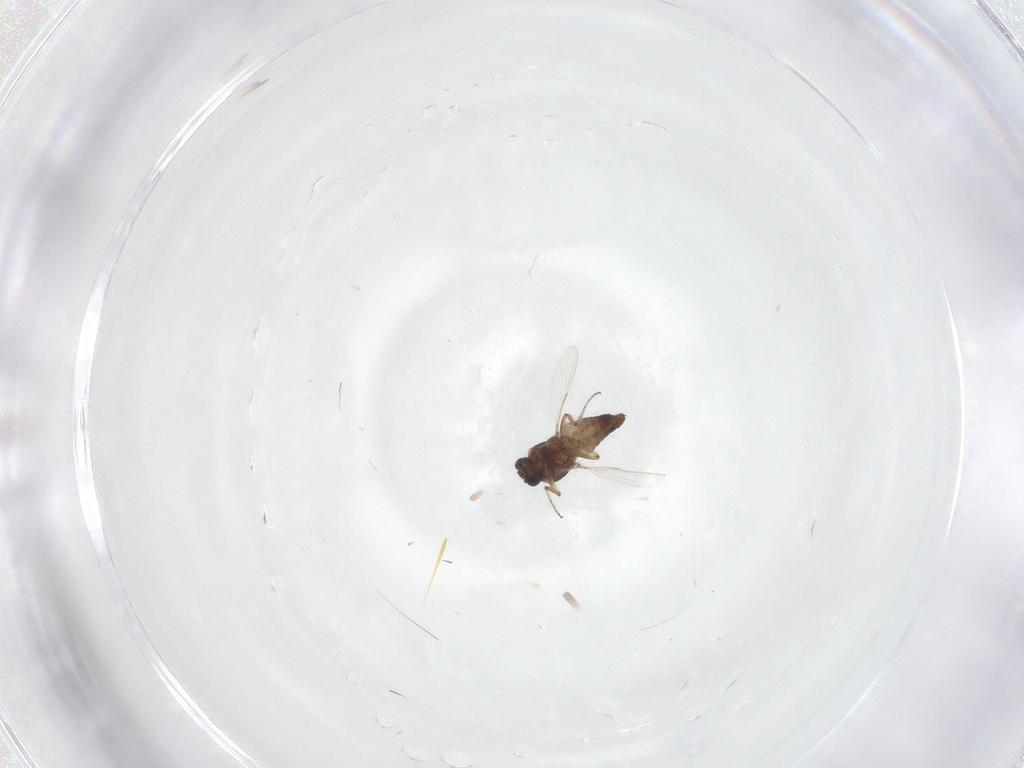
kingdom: Animalia
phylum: Arthropoda
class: Insecta
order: Diptera
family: Ceratopogonidae
